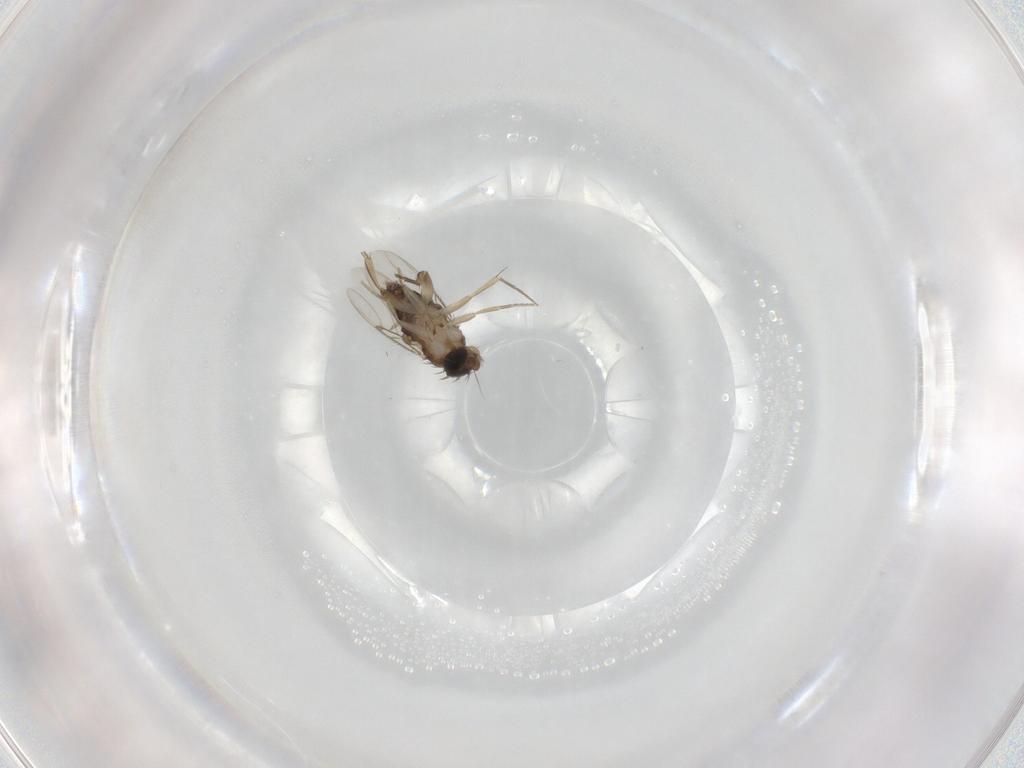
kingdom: Animalia
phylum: Arthropoda
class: Insecta
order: Diptera
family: Phoridae
